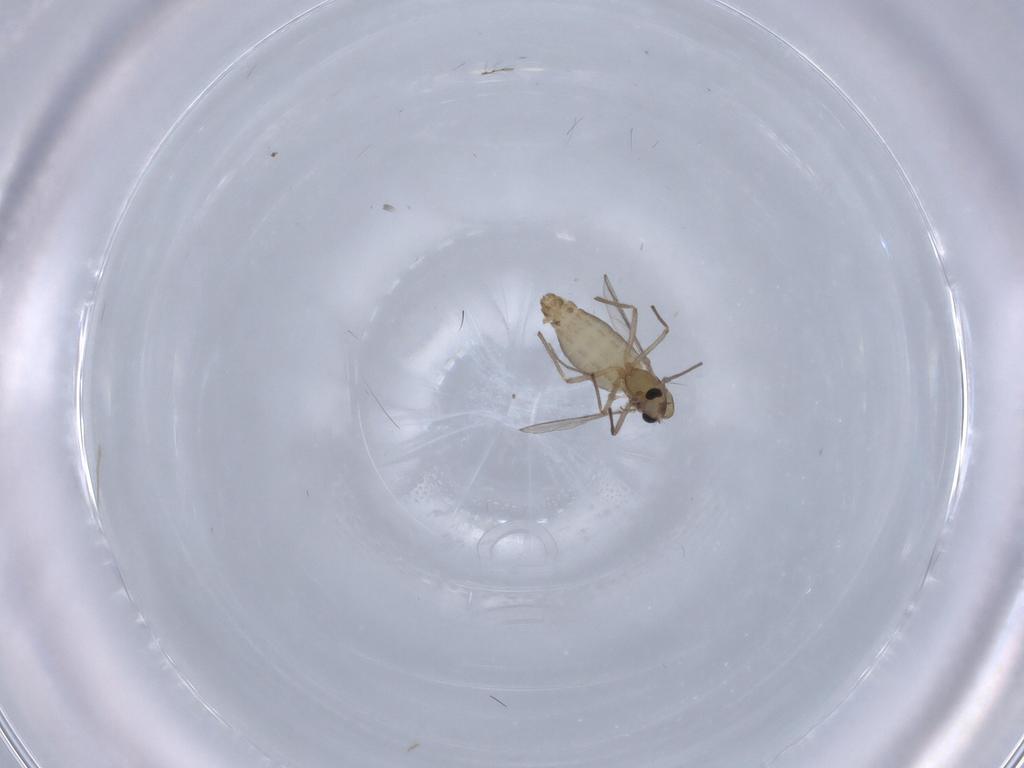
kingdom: Animalia
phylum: Arthropoda
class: Insecta
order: Diptera
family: Chironomidae
